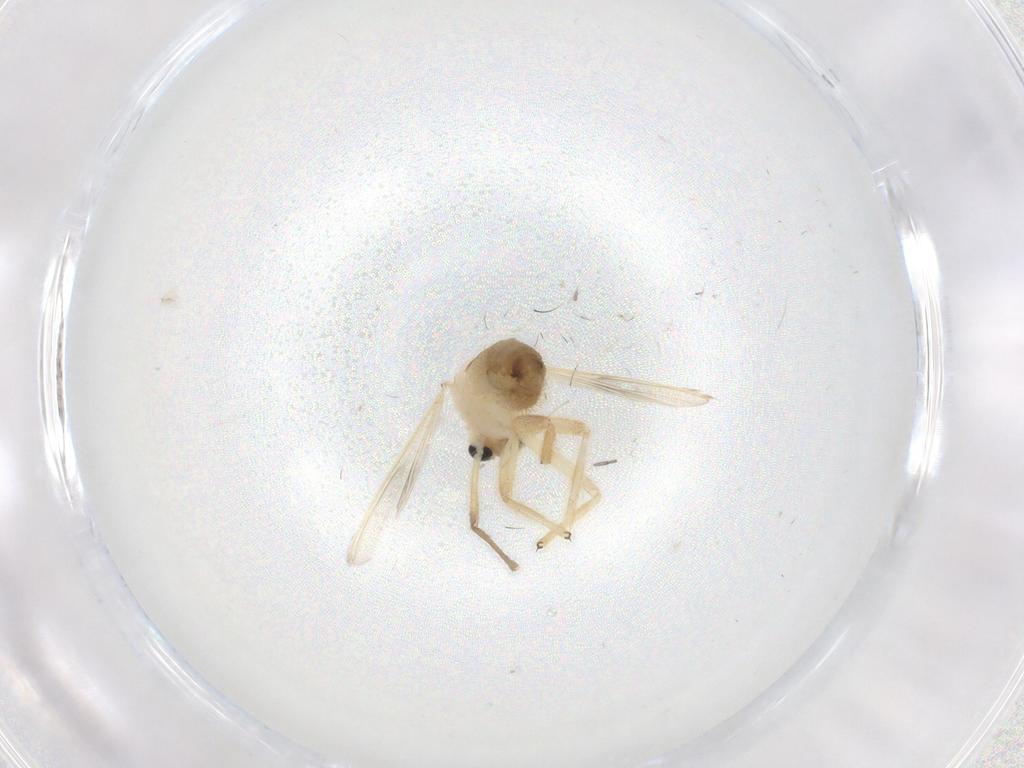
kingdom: Animalia
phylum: Arthropoda
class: Insecta
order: Diptera
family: Chironomidae
